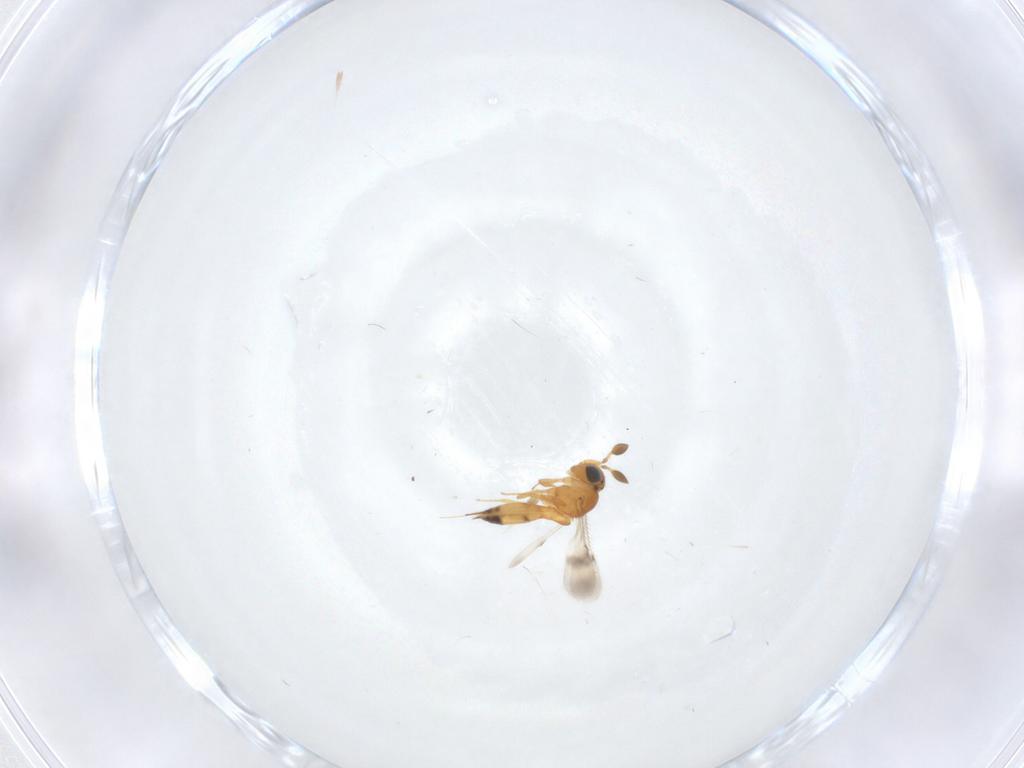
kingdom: Animalia
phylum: Arthropoda
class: Insecta
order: Hymenoptera
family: Scelionidae
